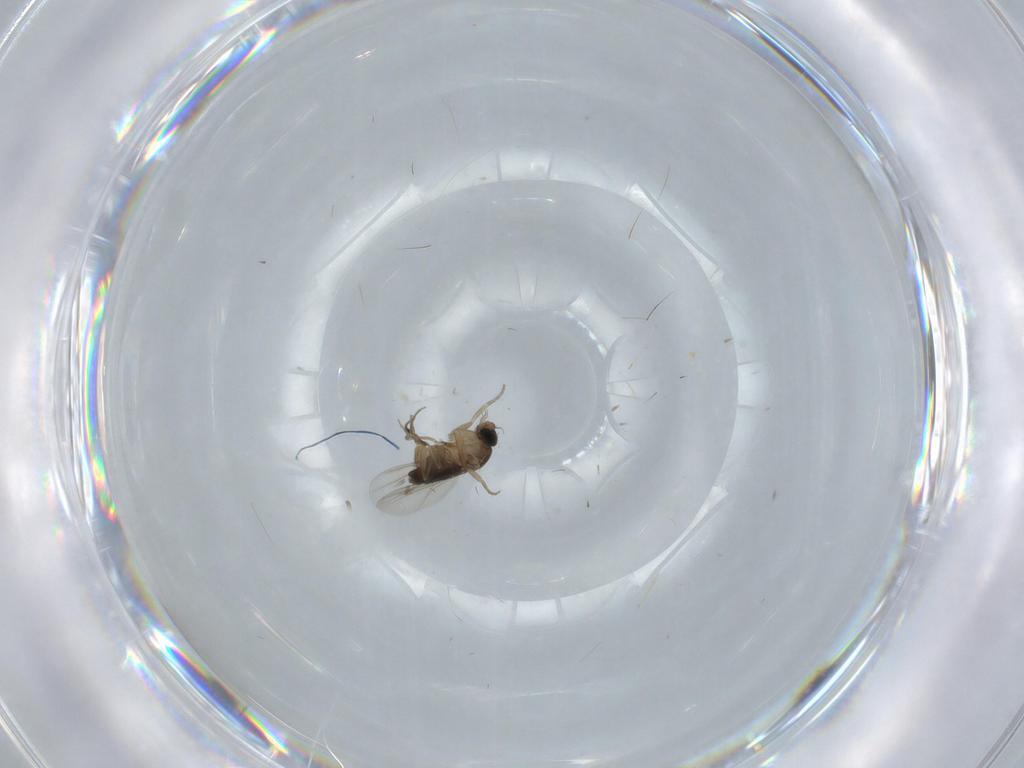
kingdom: Animalia
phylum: Arthropoda
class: Insecta
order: Diptera
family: Phoridae
